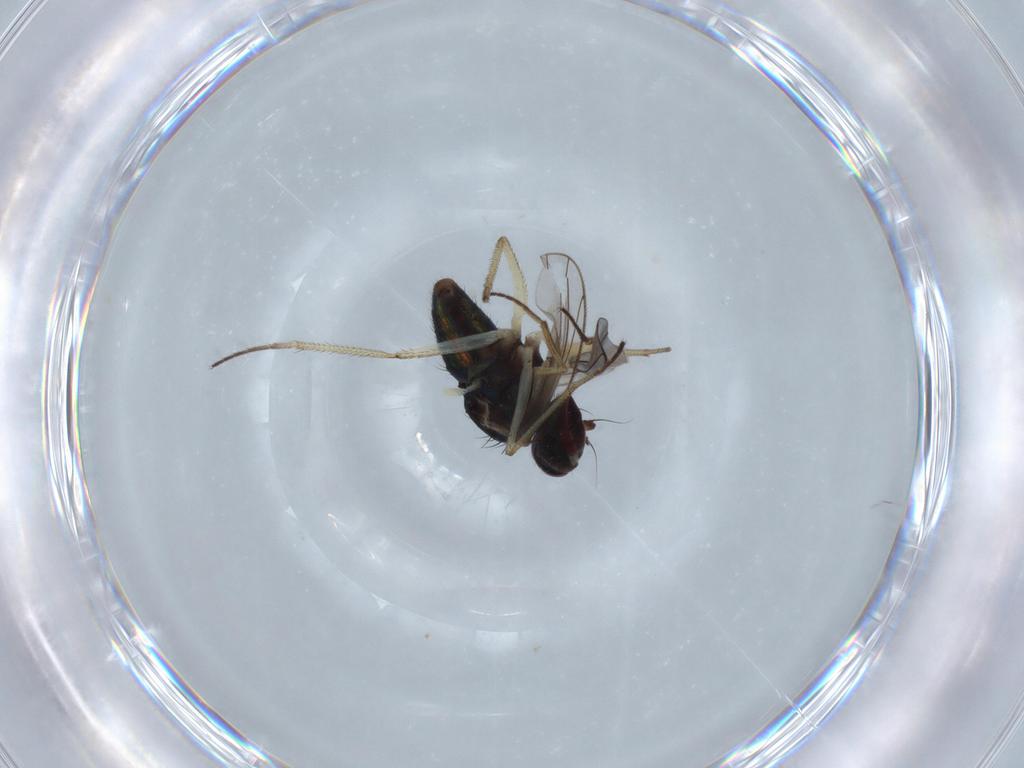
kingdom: Animalia
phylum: Arthropoda
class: Insecta
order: Diptera
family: Dolichopodidae
